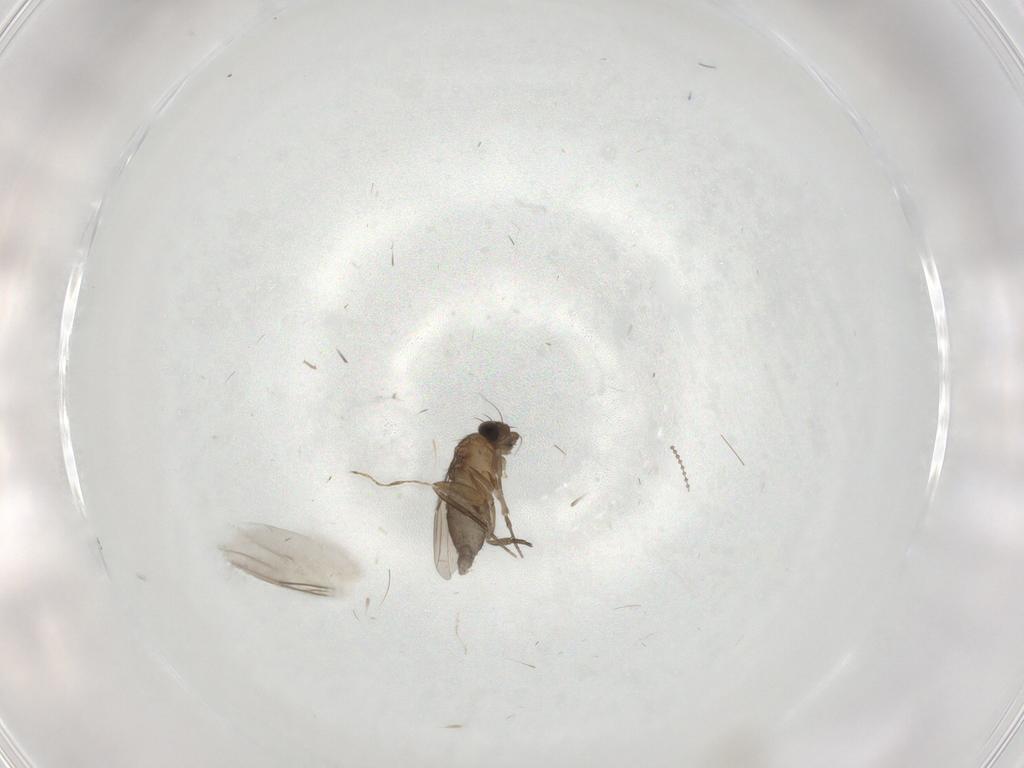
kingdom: Animalia
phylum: Arthropoda
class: Insecta
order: Diptera
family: Phoridae
